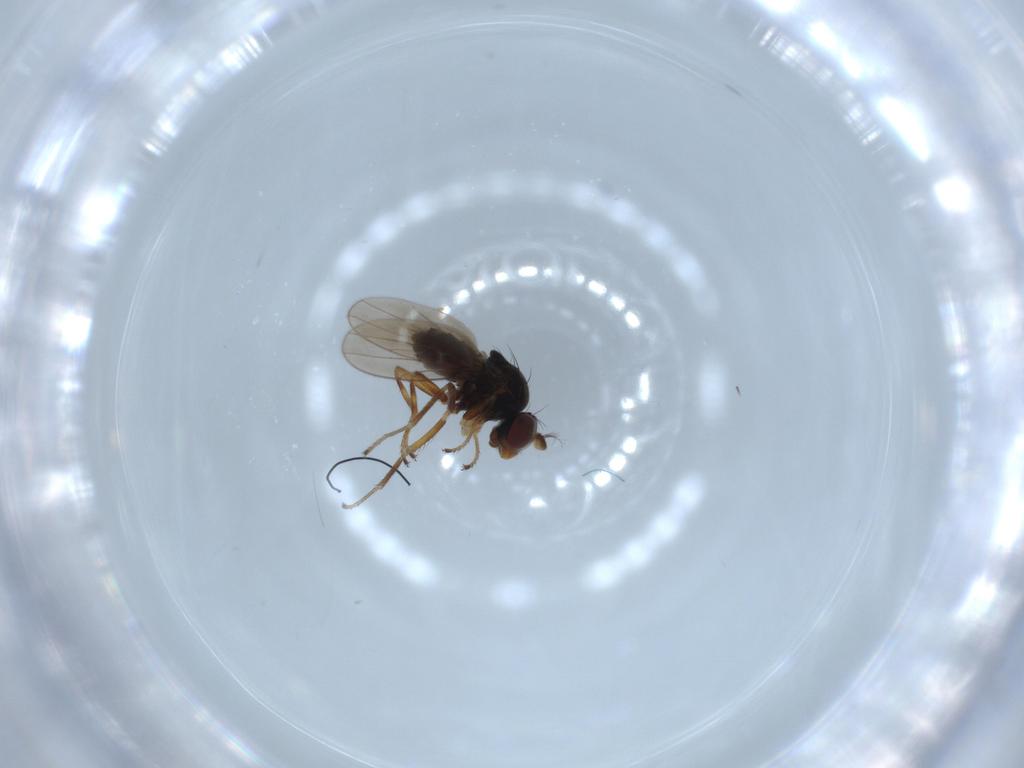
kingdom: Animalia
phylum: Arthropoda
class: Insecta
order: Diptera
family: Ephydridae
